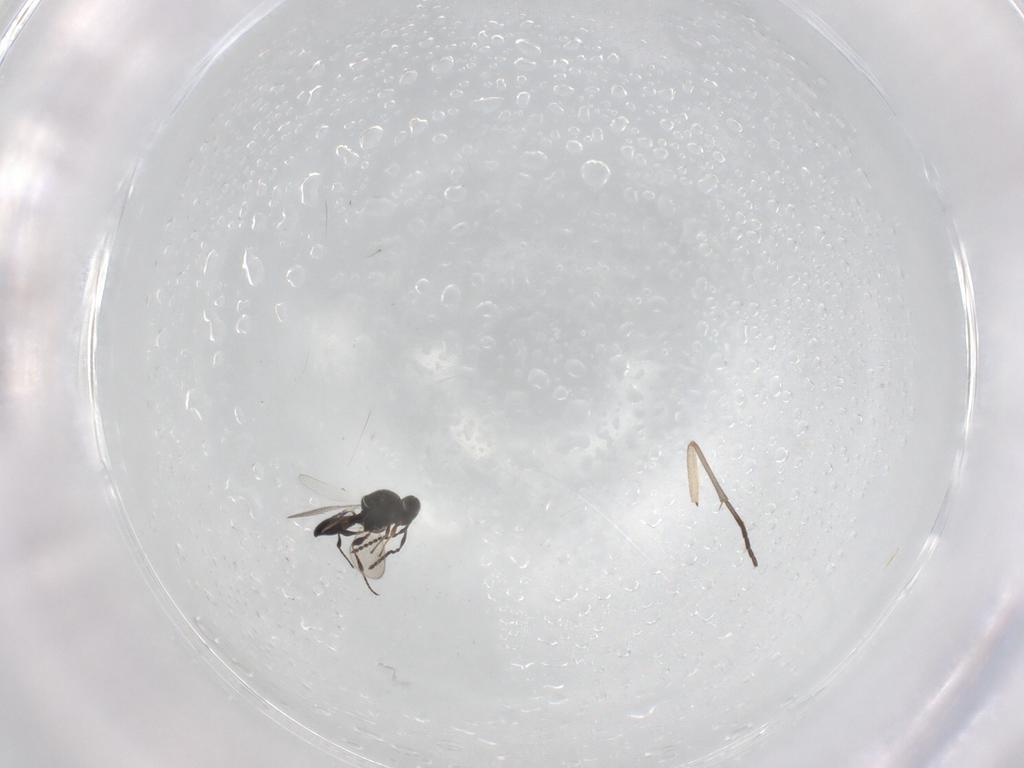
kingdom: Animalia
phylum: Arthropoda
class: Insecta
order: Hymenoptera
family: Platygastridae
